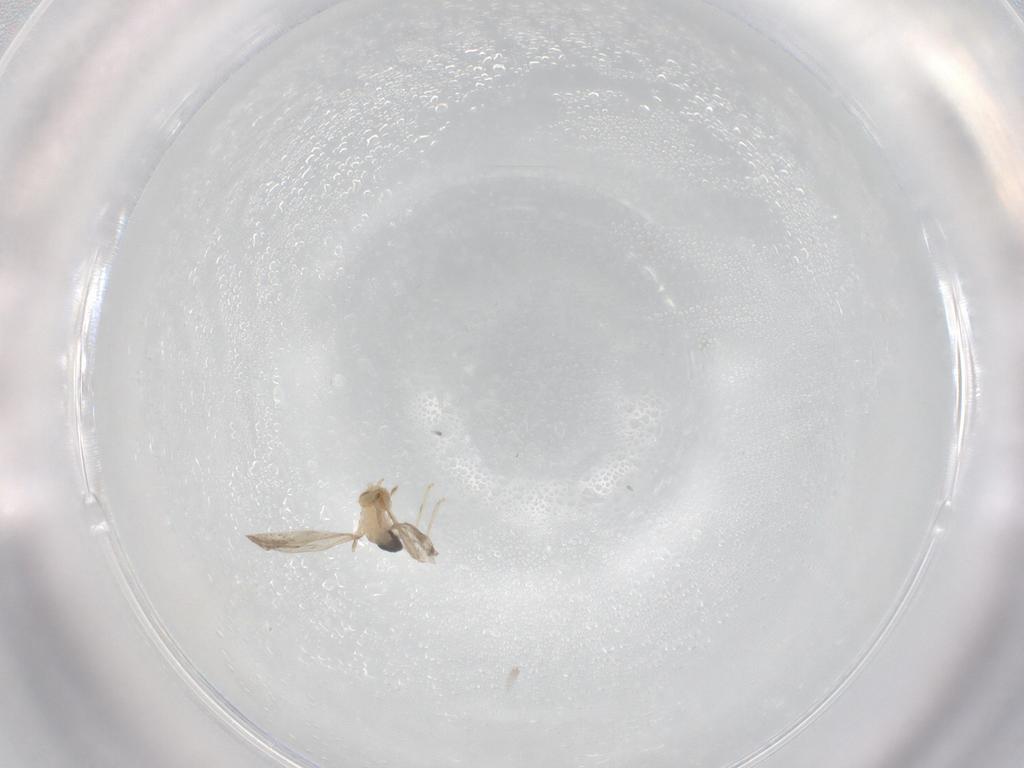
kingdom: Animalia
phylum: Arthropoda
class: Insecta
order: Diptera
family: Cecidomyiidae
